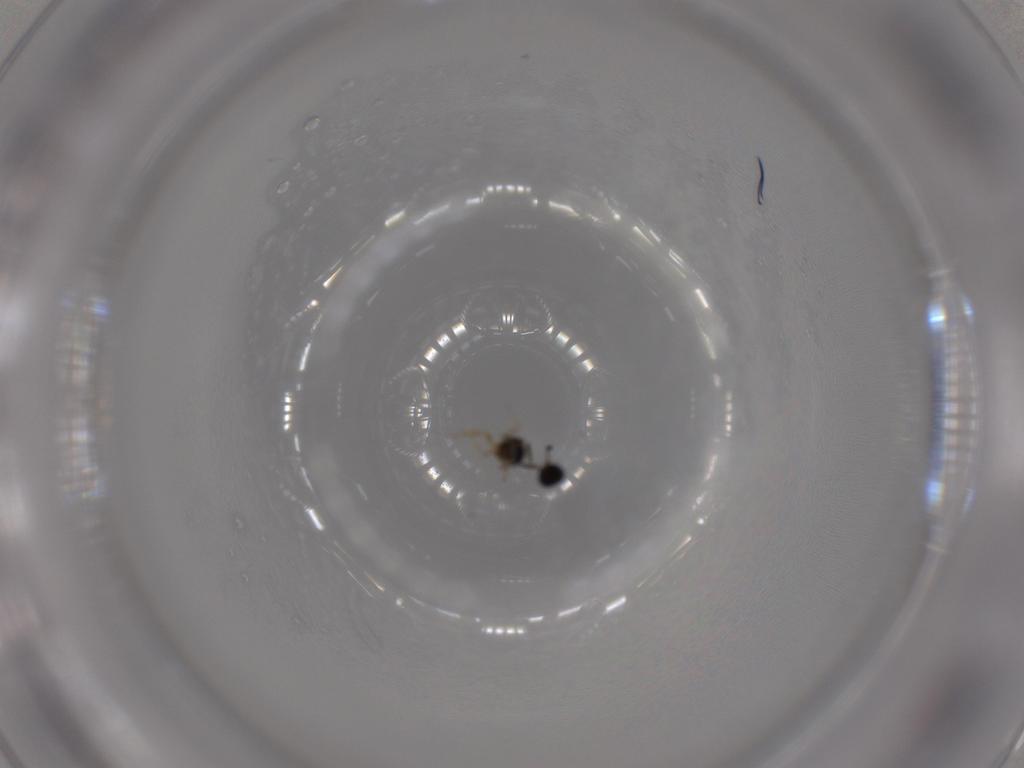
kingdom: Animalia
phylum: Arthropoda
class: Insecta
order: Hymenoptera
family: Scelionidae
